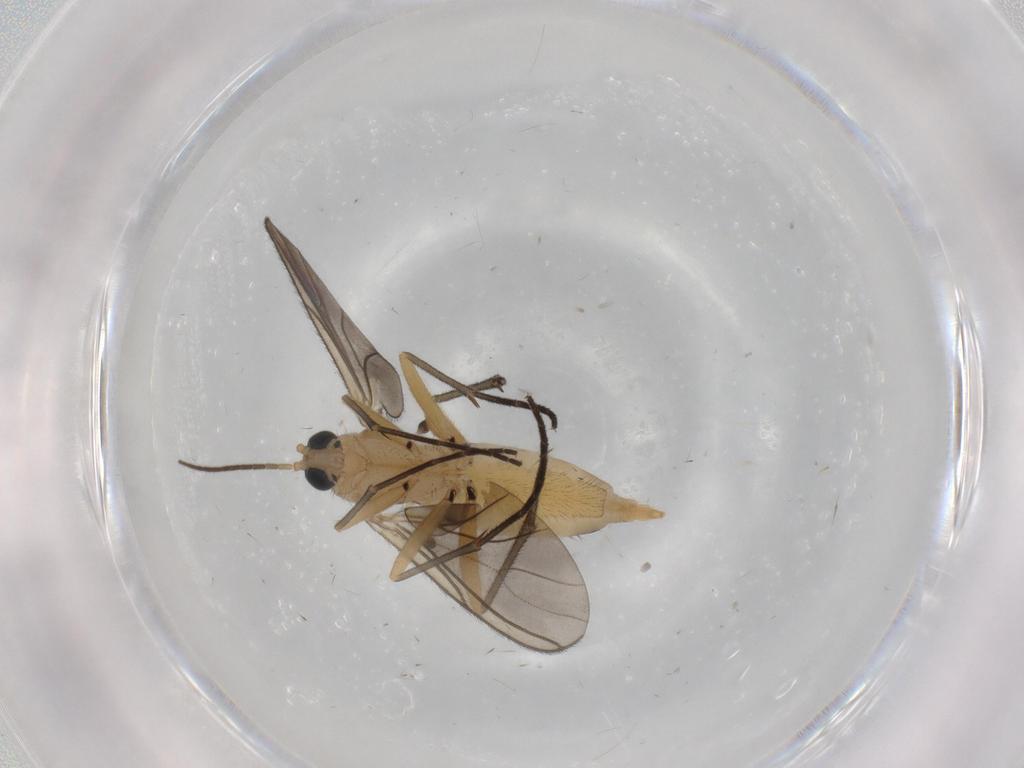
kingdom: Animalia
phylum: Arthropoda
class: Insecta
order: Diptera
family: Sciaridae
